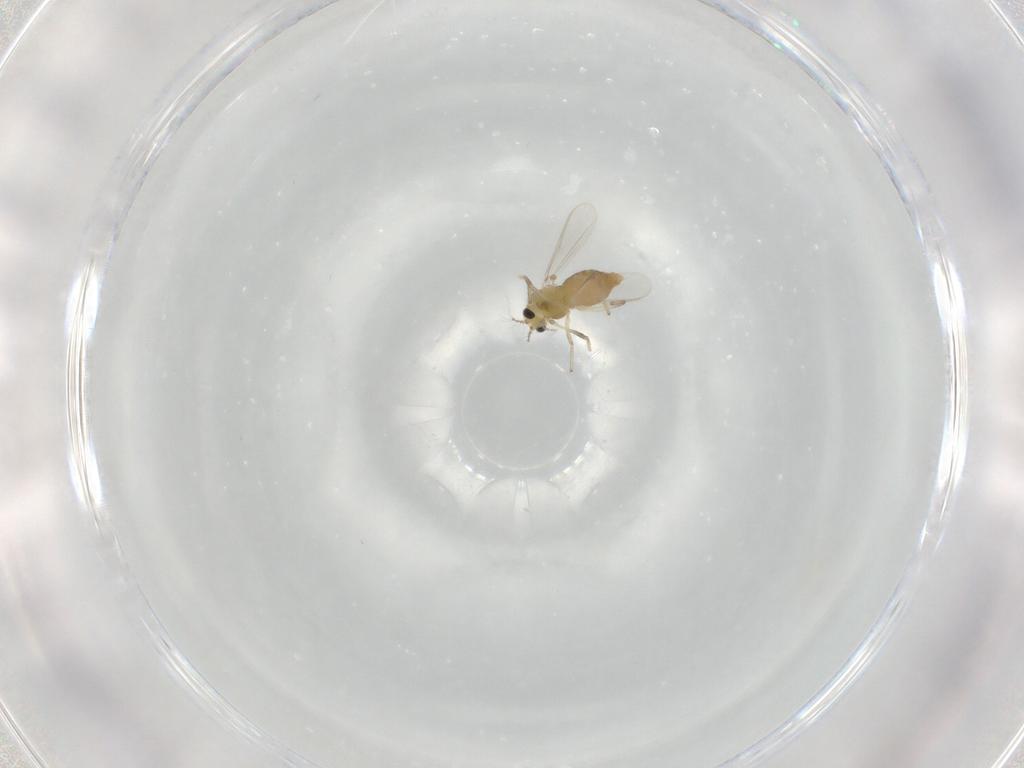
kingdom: Animalia
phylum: Arthropoda
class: Insecta
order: Diptera
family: Chironomidae
